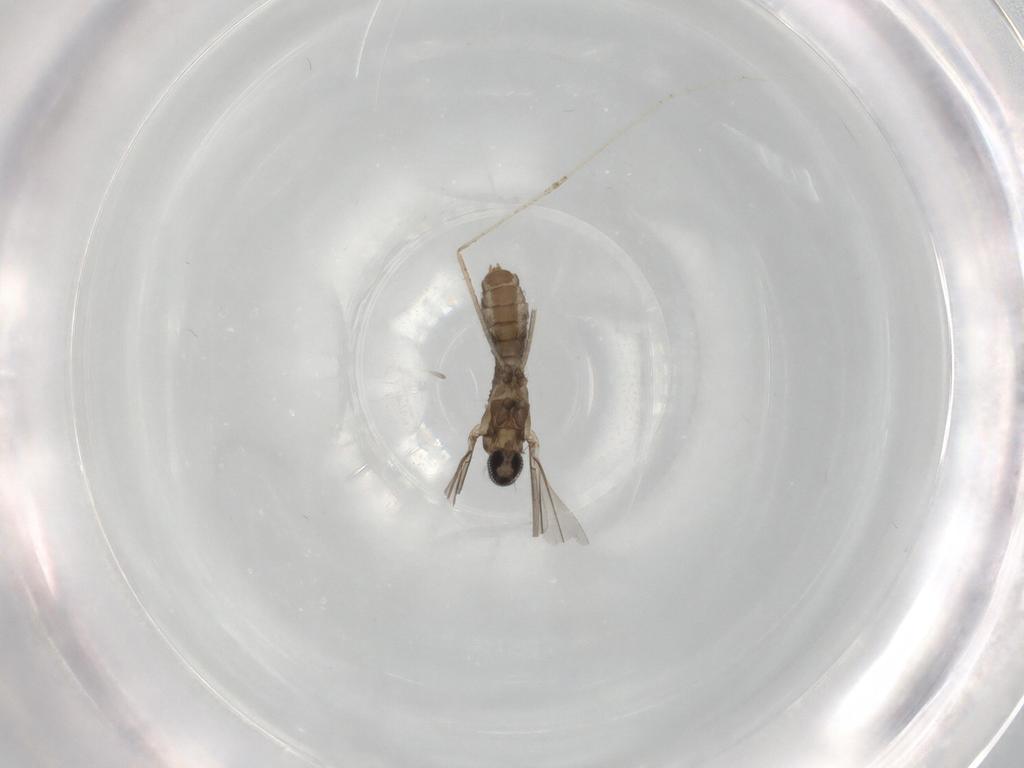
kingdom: Animalia
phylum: Arthropoda
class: Insecta
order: Diptera
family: Cecidomyiidae
